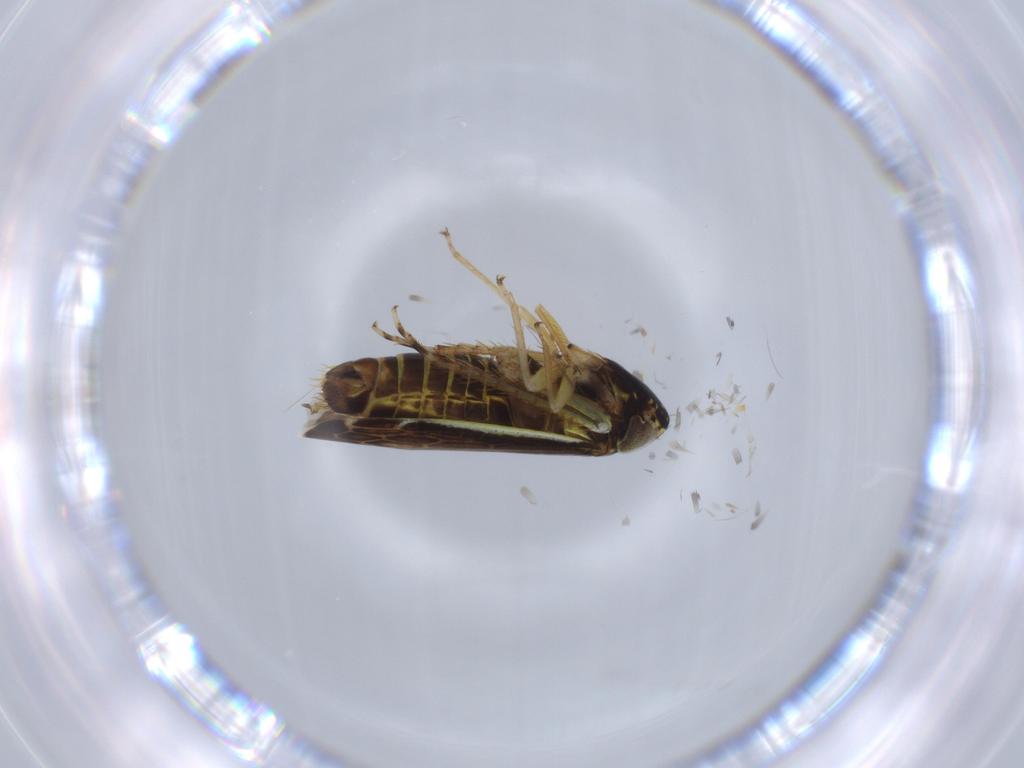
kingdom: Animalia
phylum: Arthropoda
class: Insecta
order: Hemiptera
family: Cicadellidae
